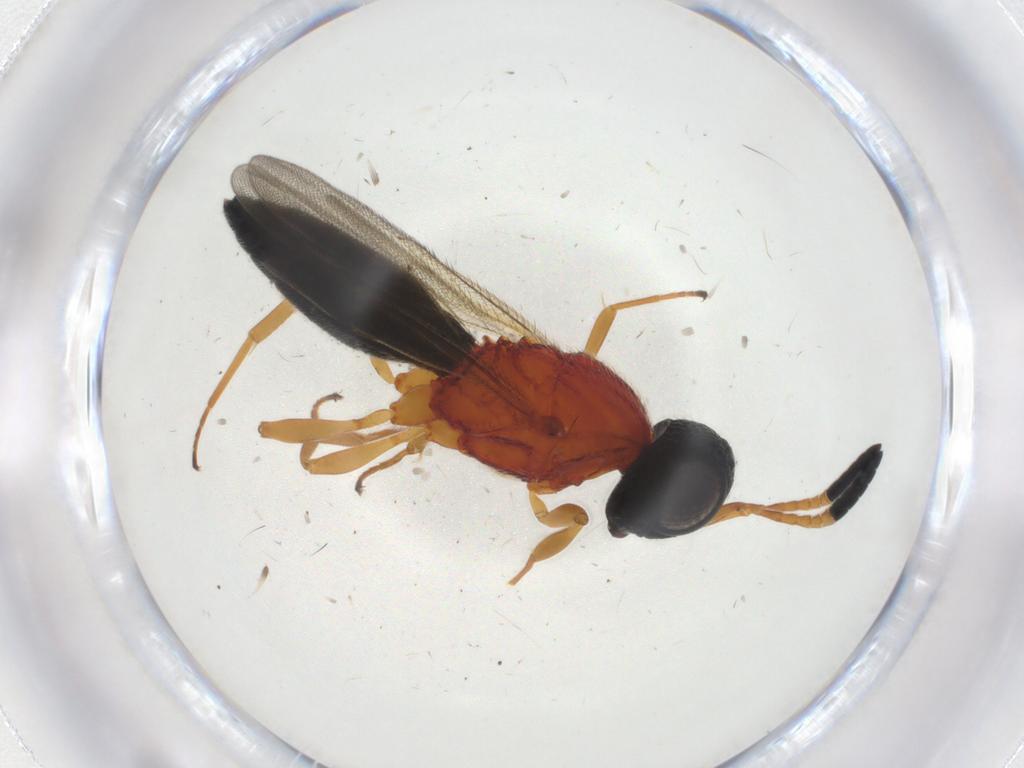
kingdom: Animalia
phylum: Arthropoda
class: Insecta
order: Hymenoptera
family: Scelionidae
